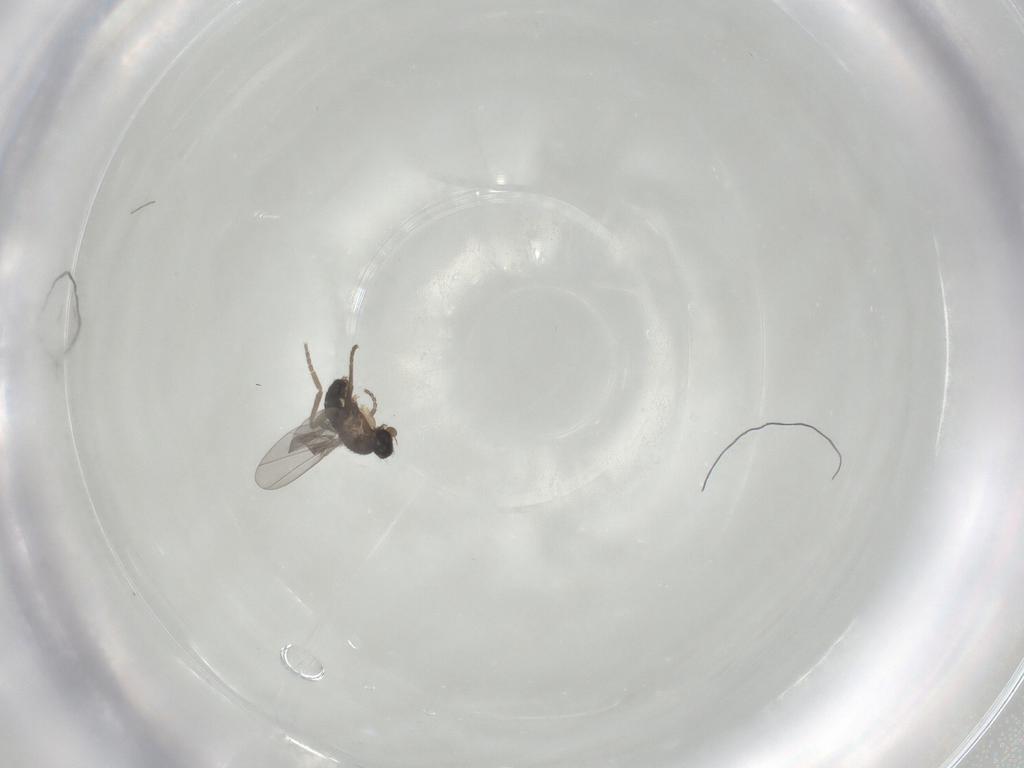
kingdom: Animalia
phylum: Arthropoda
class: Insecta
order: Diptera
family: Phoridae
